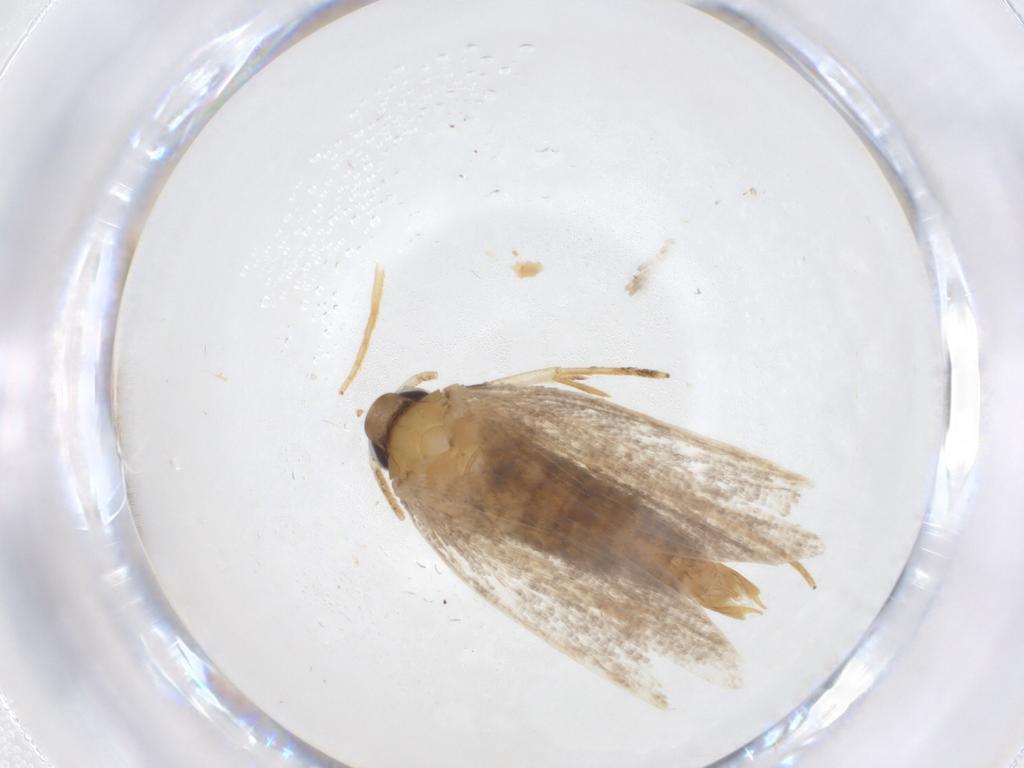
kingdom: Animalia
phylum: Arthropoda
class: Insecta
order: Lepidoptera
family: Oecophoridae
